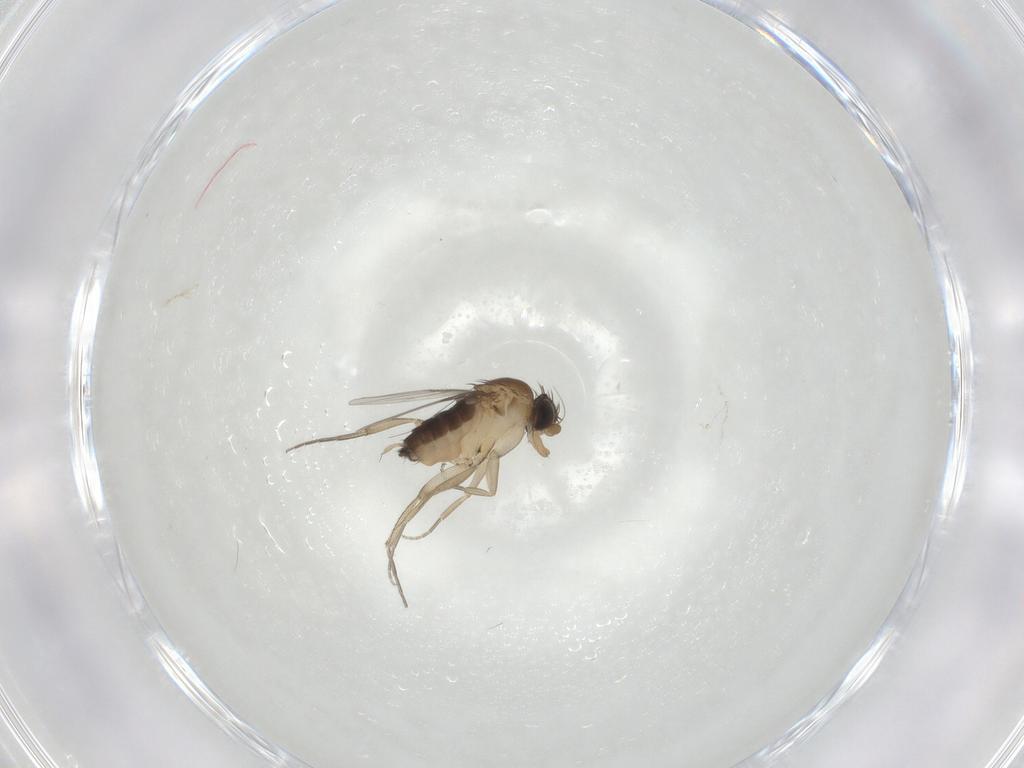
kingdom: Animalia
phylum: Arthropoda
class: Insecta
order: Diptera
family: Limoniidae
